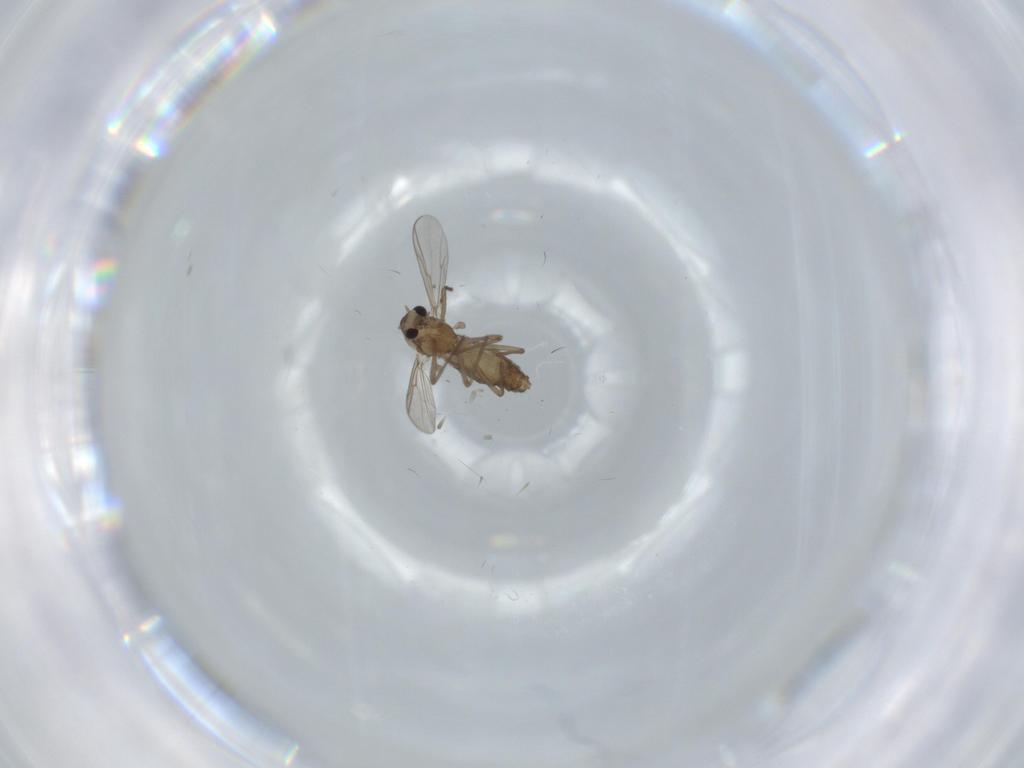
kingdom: Animalia
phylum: Arthropoda
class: Insecta
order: Diptera
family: Chironomidae
